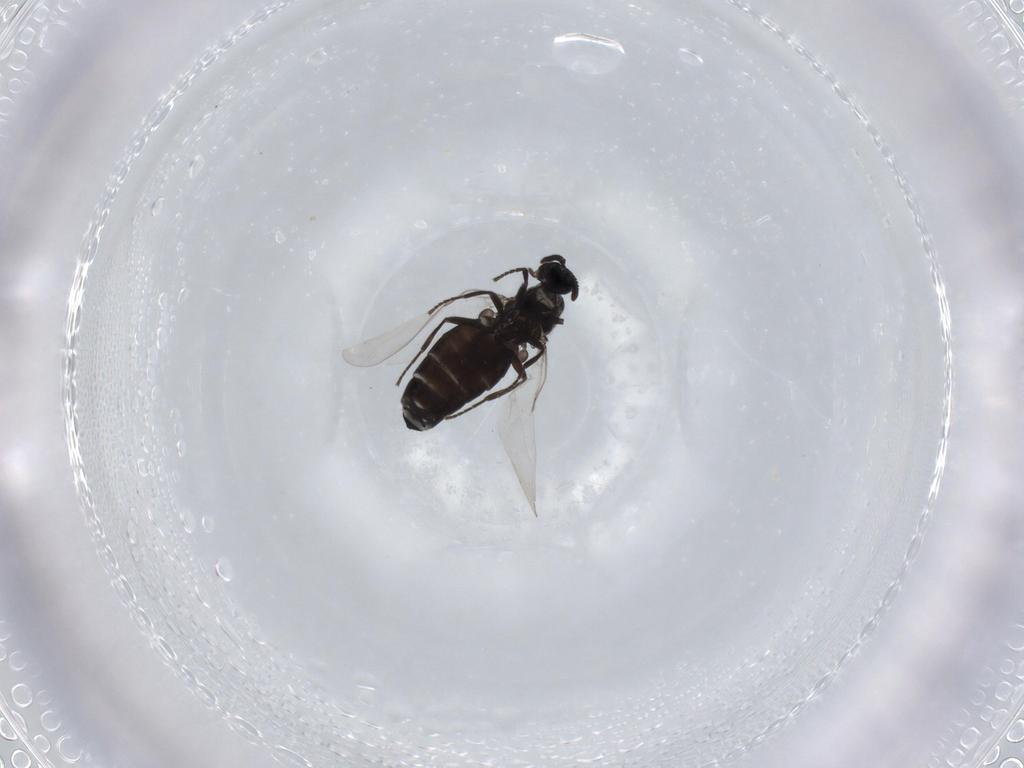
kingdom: Animalia
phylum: Arthropoda
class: Insecta
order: Diptera
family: Scatopsidae
